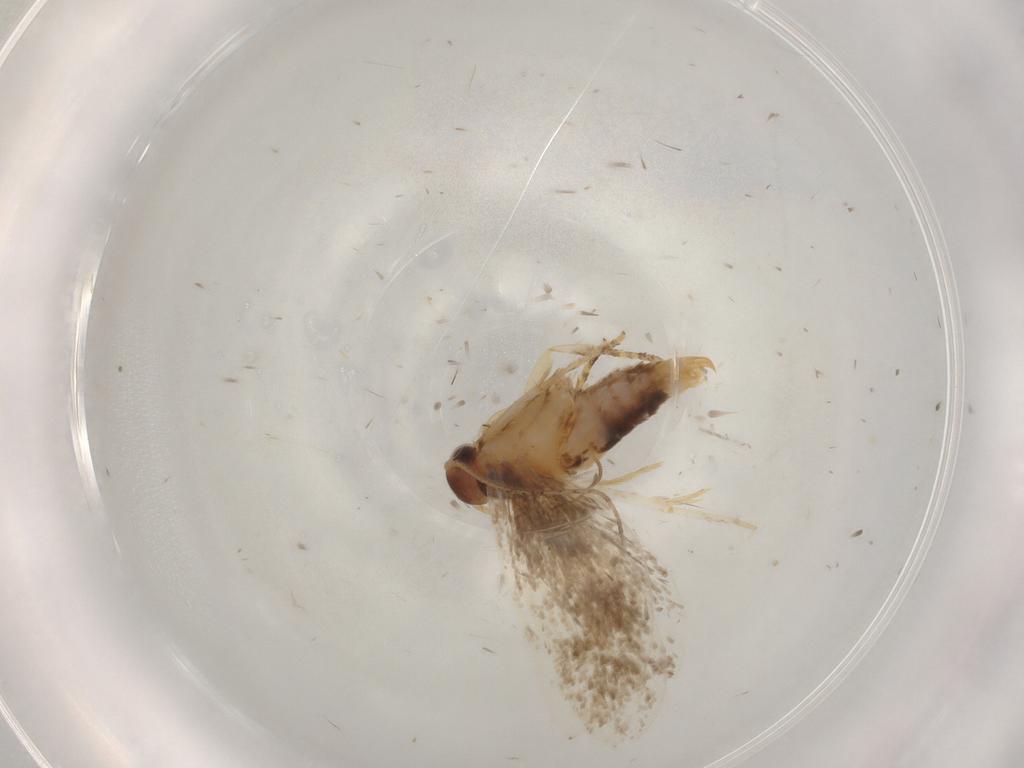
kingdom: Animalia
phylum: Arthropoda
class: Insecta
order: Lepidoptera
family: Oecophoridae
